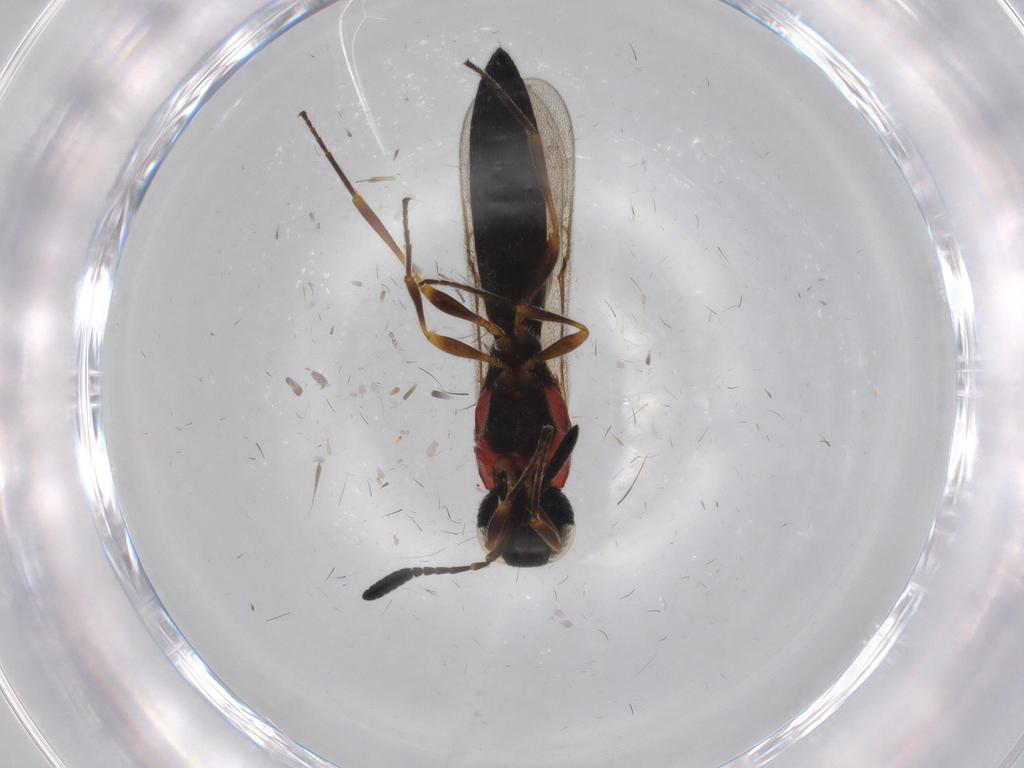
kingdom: Animalia
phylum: Arthropoda
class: Insecta
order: Hymenoptera
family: Scelionidae
